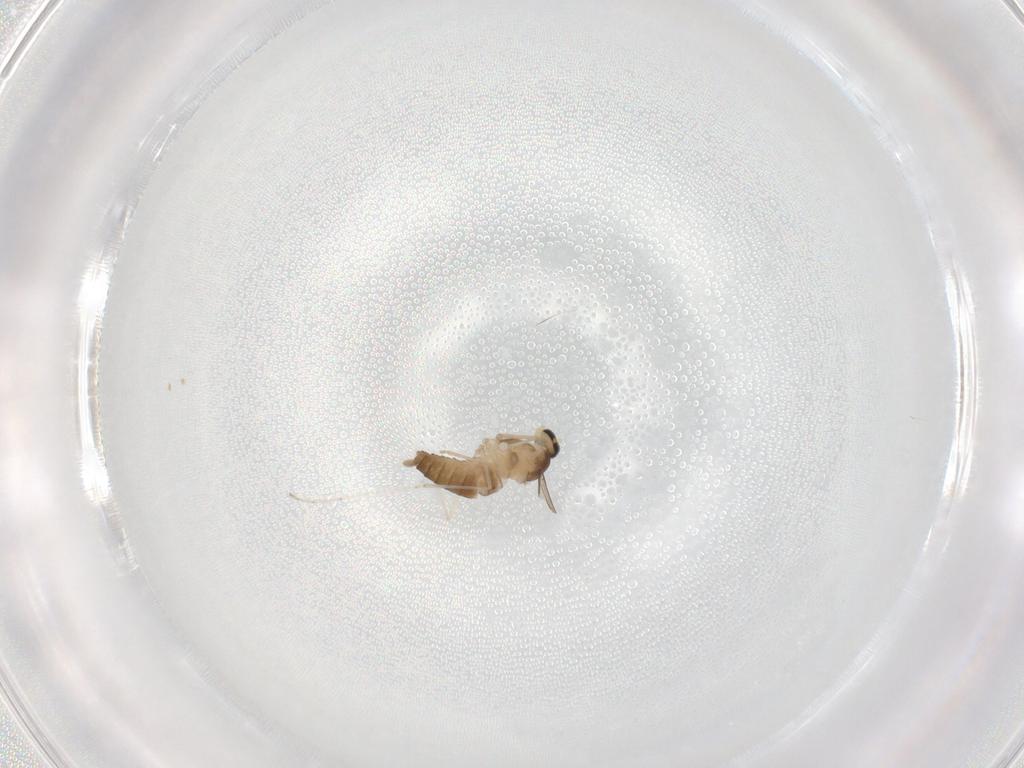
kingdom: Animalia
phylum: Arthropoda
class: Insecta
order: Diptera
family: Cecidomyiidae
